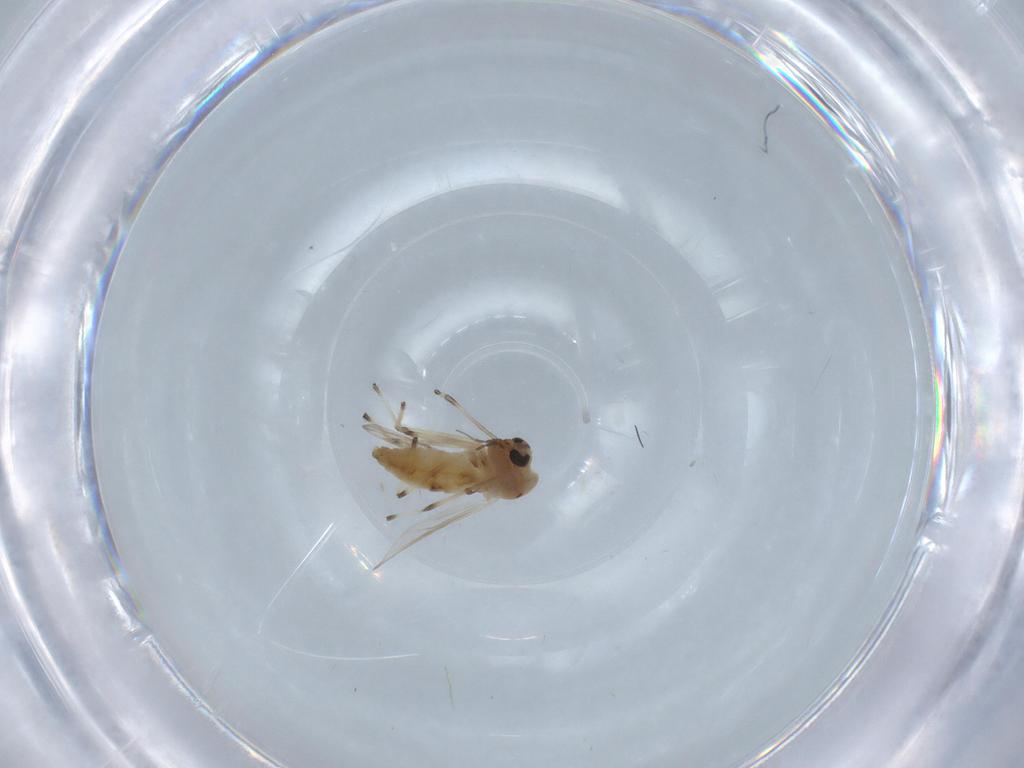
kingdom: Animalia
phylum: Arthropoda
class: Insecta
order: Diptera
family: Chironomidae
